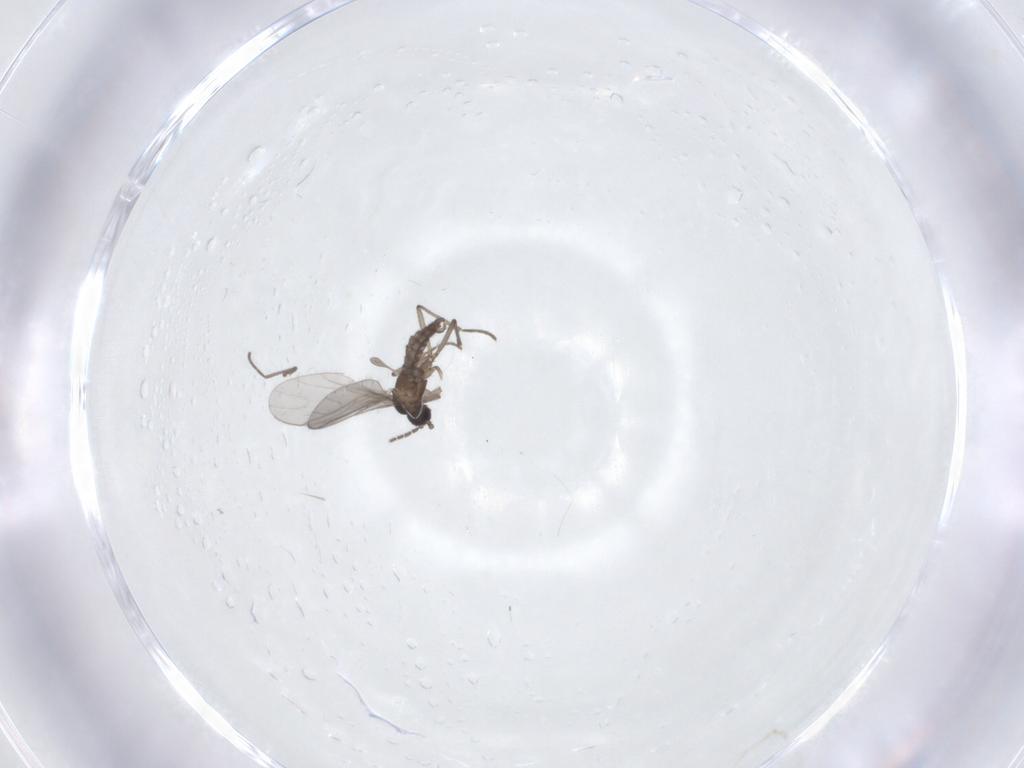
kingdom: Animalia
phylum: Arthropoda
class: Insecta
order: Diptera
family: Sciaridae
